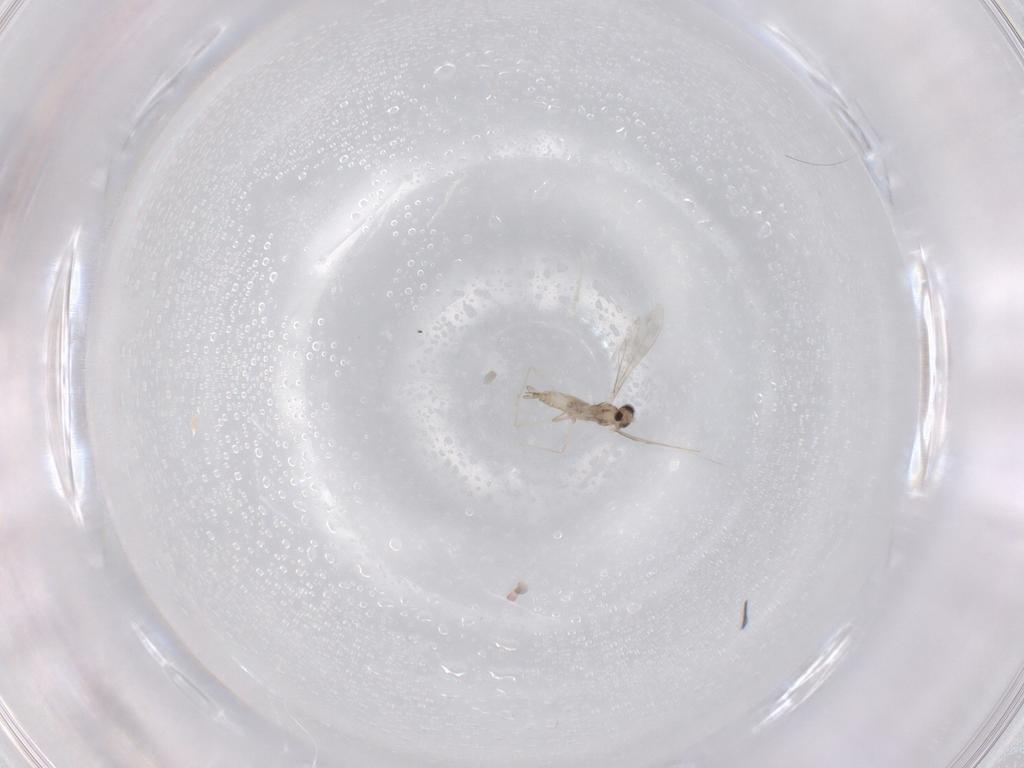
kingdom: Animalia
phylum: Arthropoda
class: Insecta
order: Diptera
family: Cecidomyiidae
